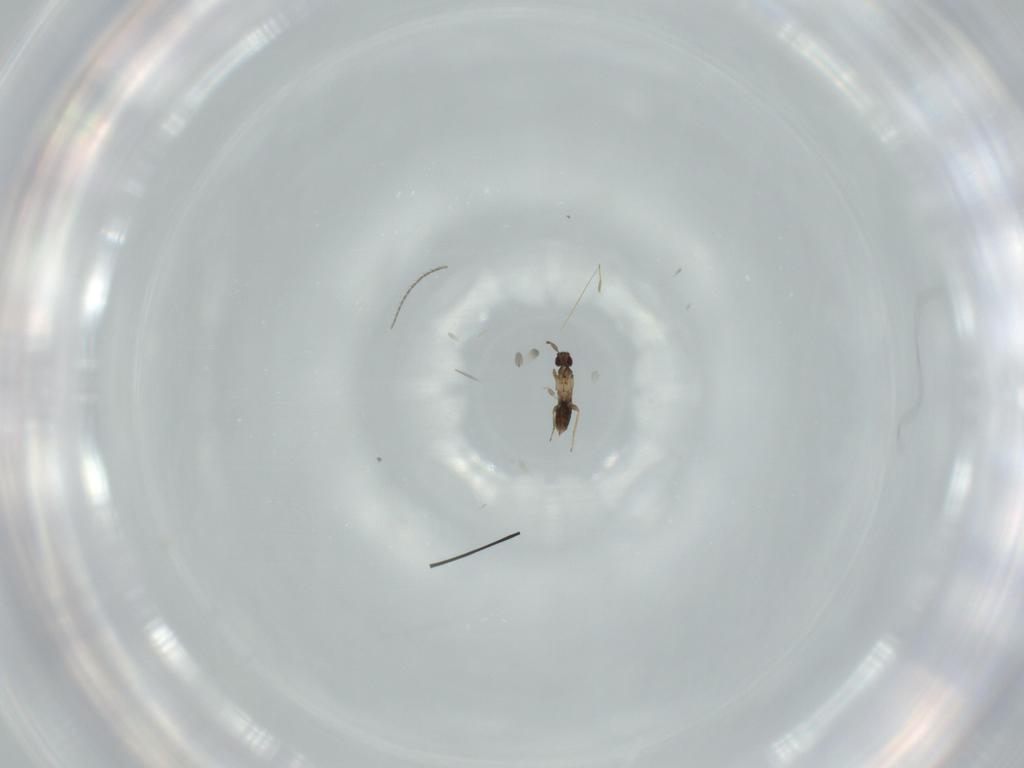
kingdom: Animalia
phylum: Arthropoda
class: Insecta
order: Hymenoptera
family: Mymaridae
